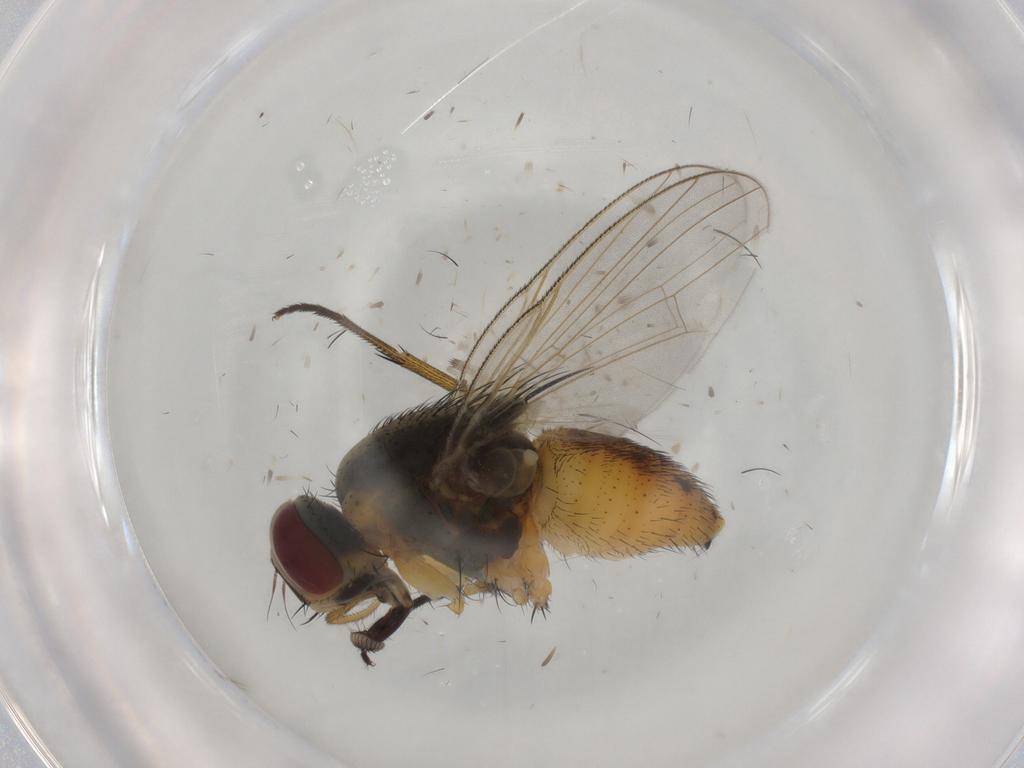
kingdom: Animalia
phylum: Arthropoda
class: Insecta
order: Diptera
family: Muscidae
